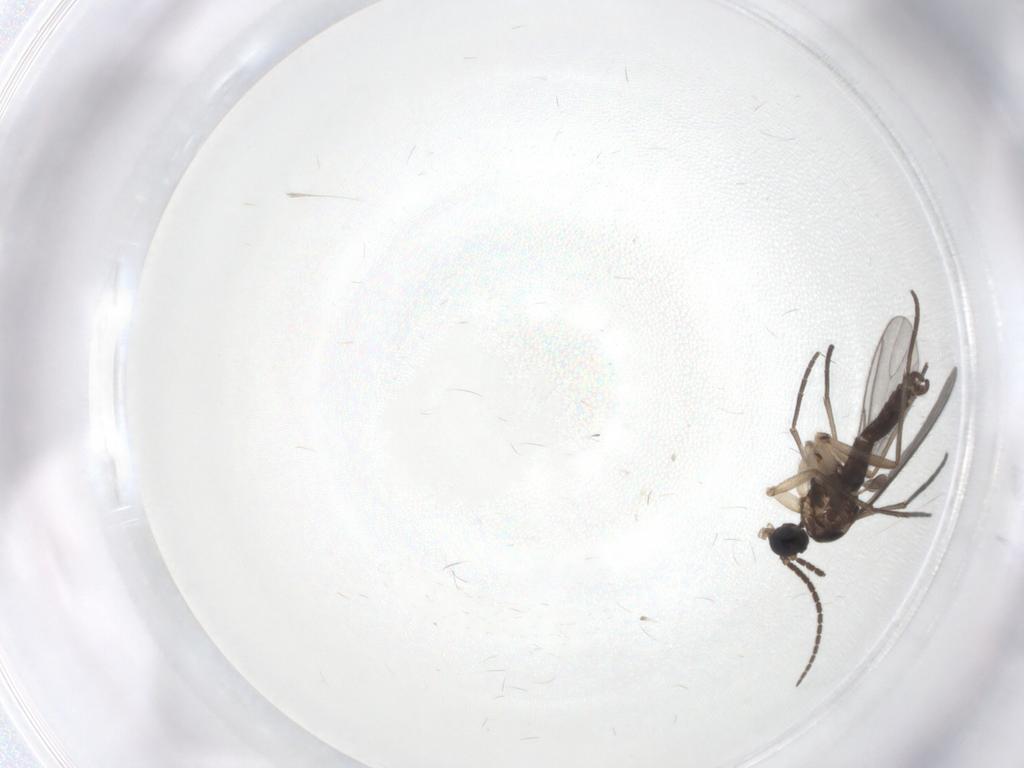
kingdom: Animalia
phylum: Arthropoda
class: Insecta
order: Diptera
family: Sciaridae
